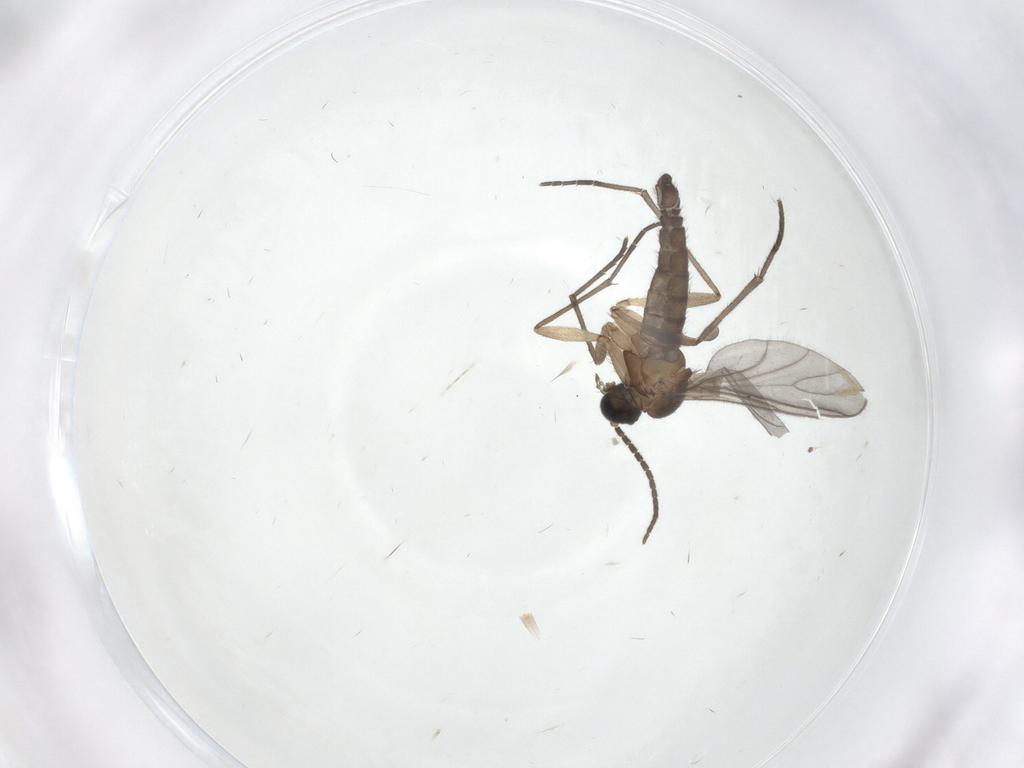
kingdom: Animalia
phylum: Arthropoda
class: Insecta
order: Diptera
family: Sciaridae
